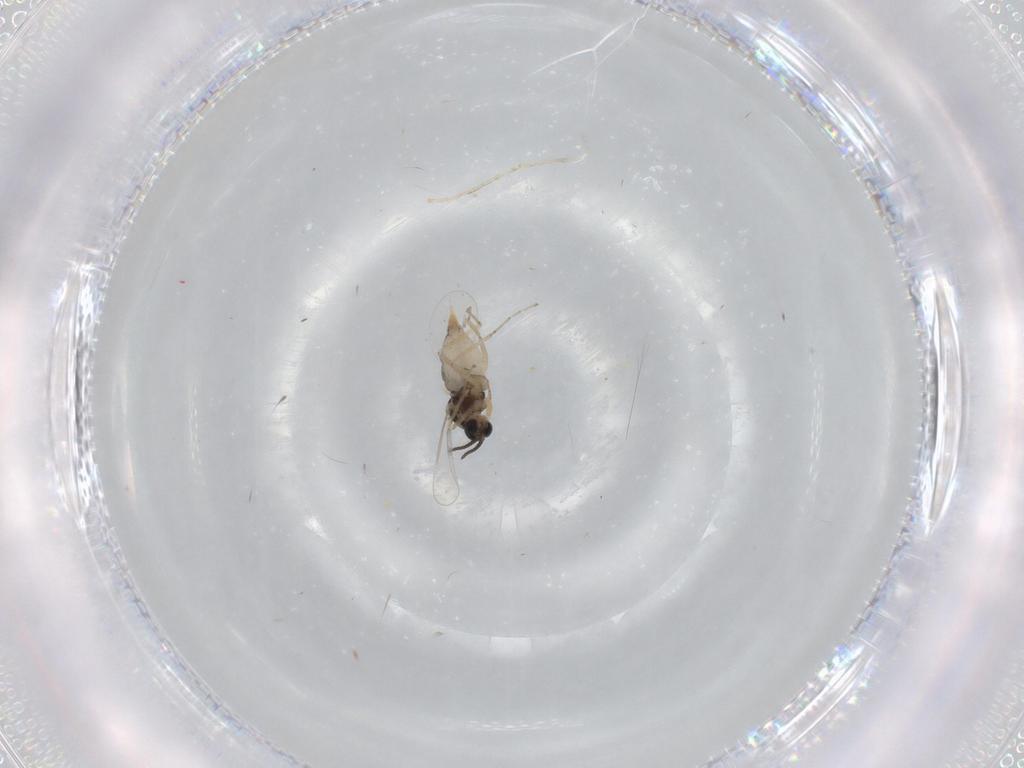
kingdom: Animalia
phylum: Arthropoda
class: Insecta
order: Diptera
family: Cecidomyiidae
